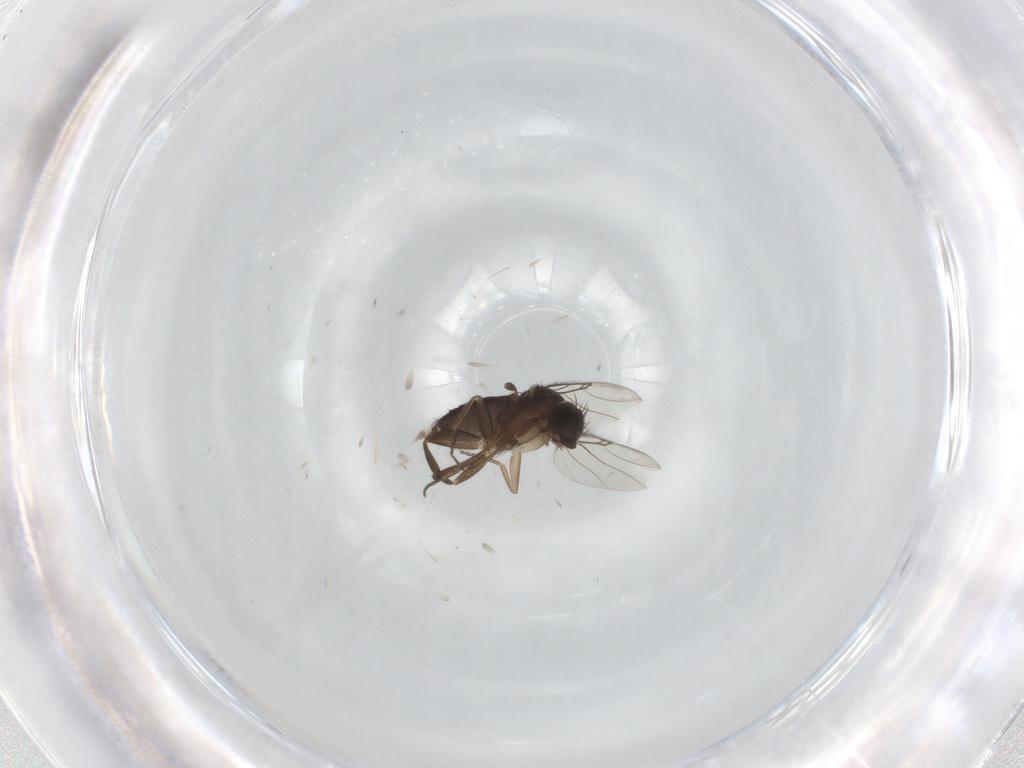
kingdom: Animalia
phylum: Arthropoda
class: Insecta
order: Diptera
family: Phoridae
